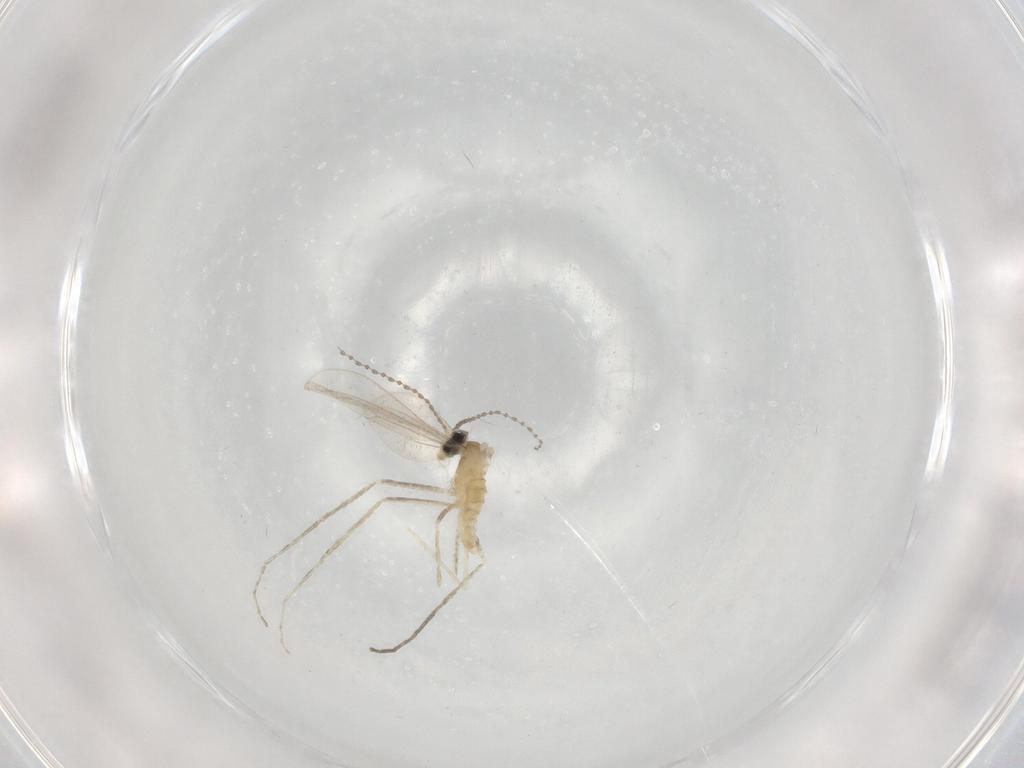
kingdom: Animalia
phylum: Arthropoda
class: Insecta
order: Diptera
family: Cecidomyiidae
